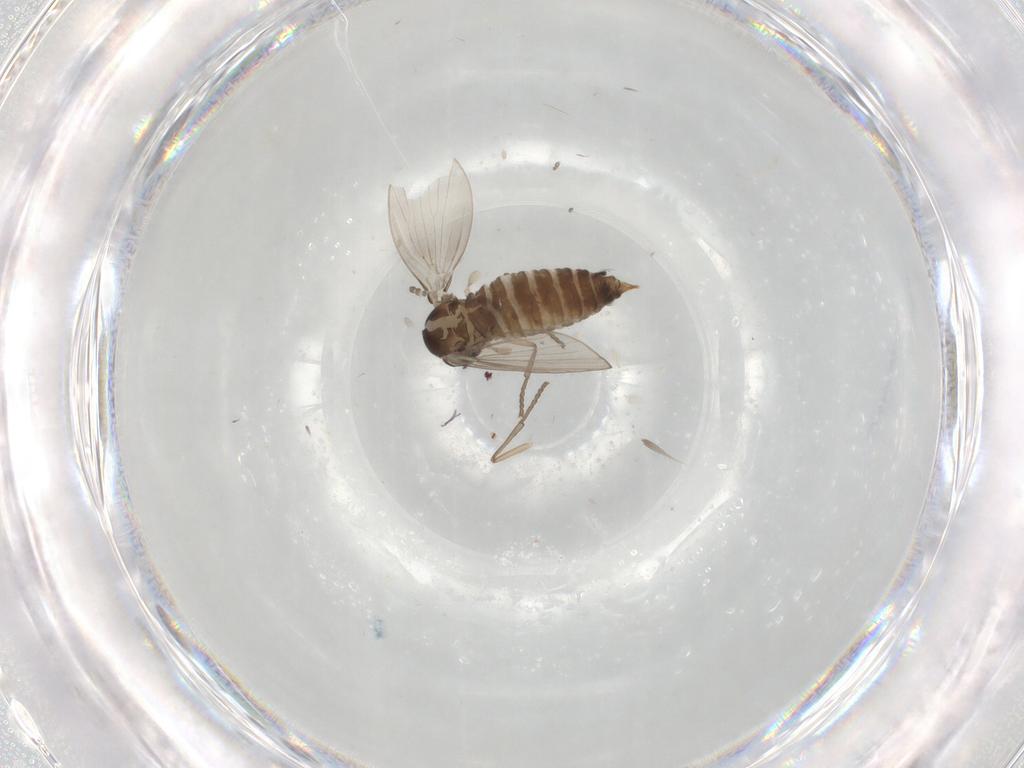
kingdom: Animalia
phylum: Arthropoda
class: Insecta
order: Diptera
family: Psychodidae
